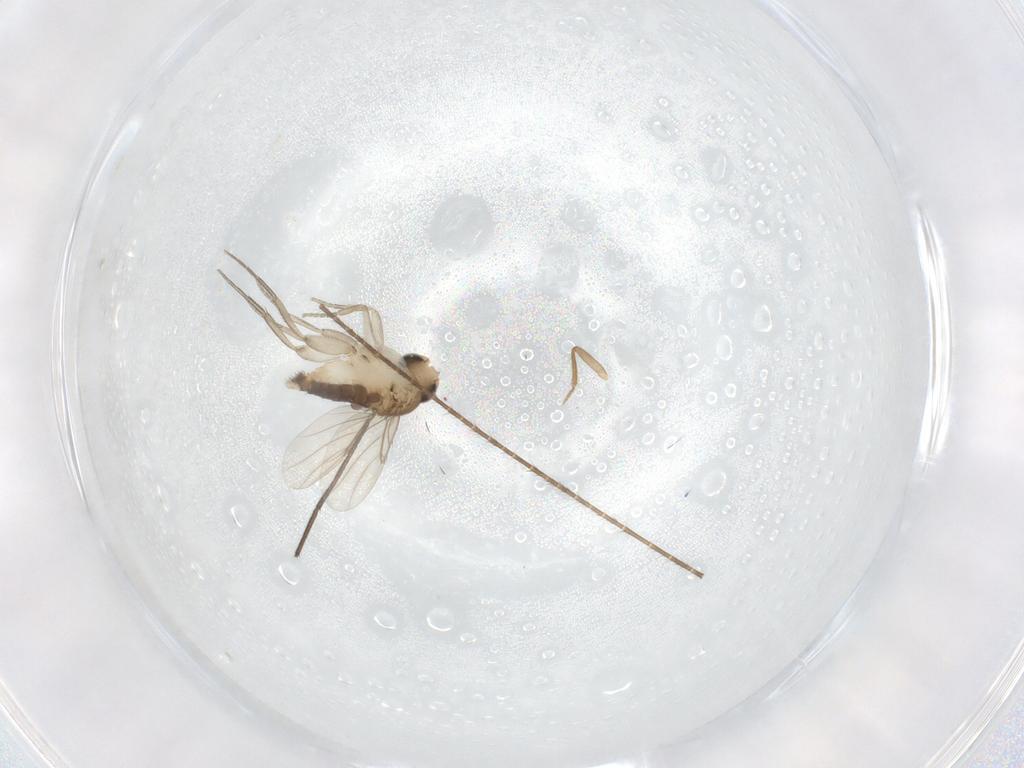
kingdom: Animalia
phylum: Arthropoda
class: Insecta
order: Diptera
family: Phoridae
